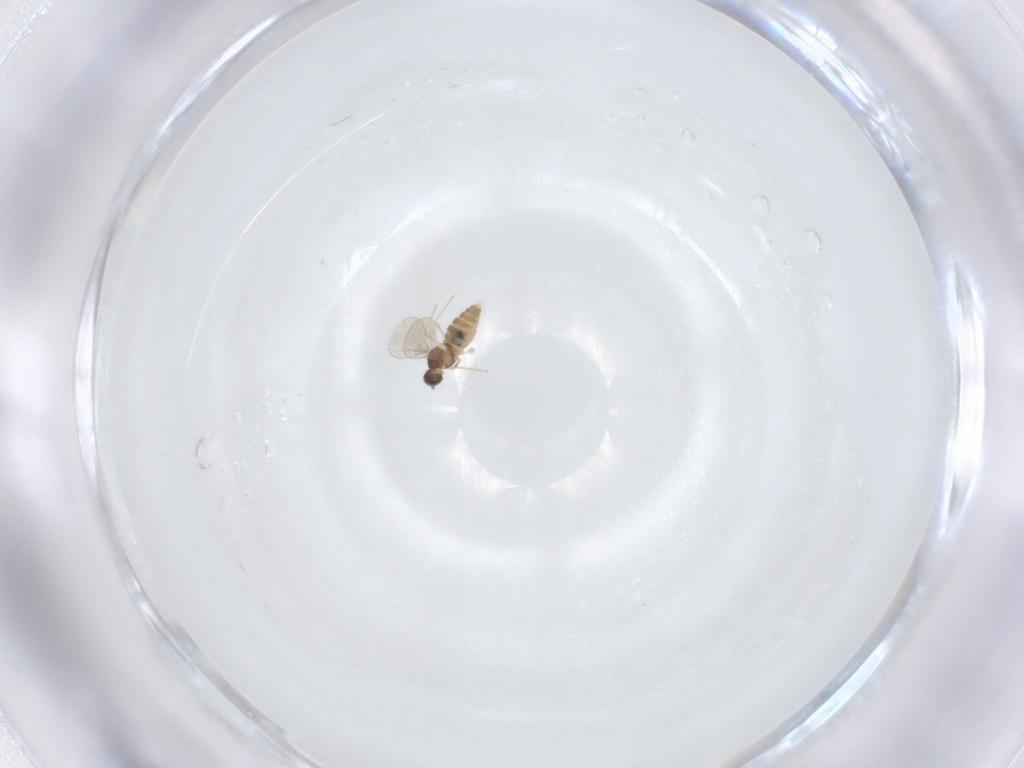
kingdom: Animalia
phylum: Arthropoda
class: Insecta
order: Diptera
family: Cecidomyiidae
